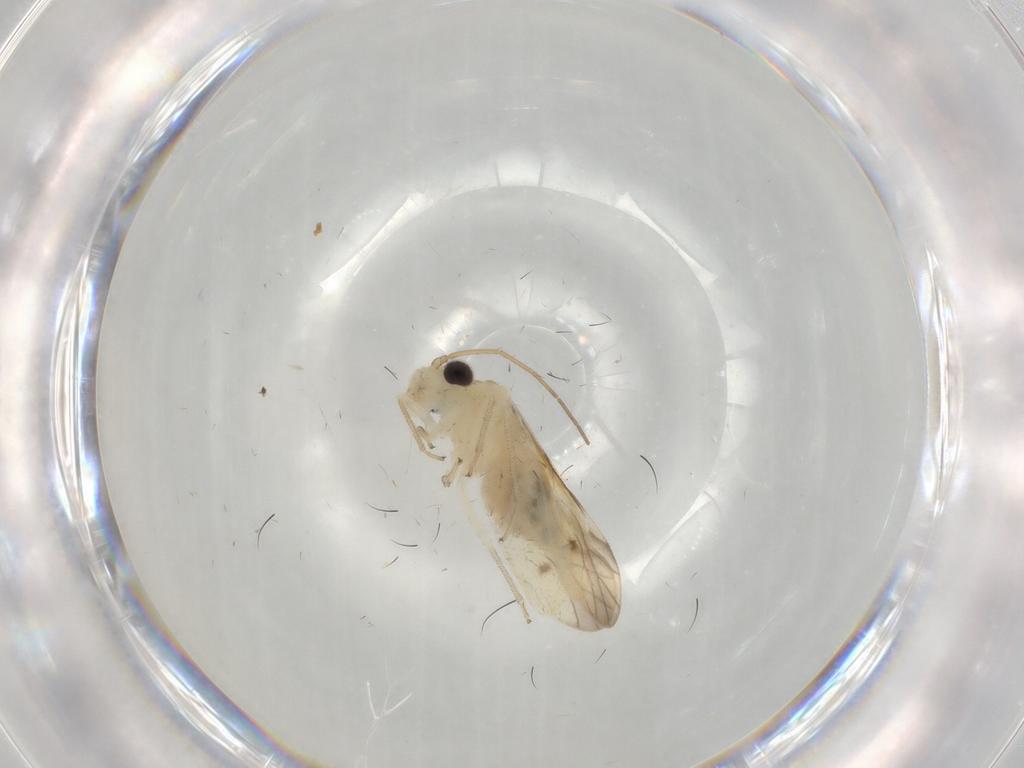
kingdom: Animalia
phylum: Arthropoda
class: Insecta
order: Psocodea
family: Caeciliusidae
